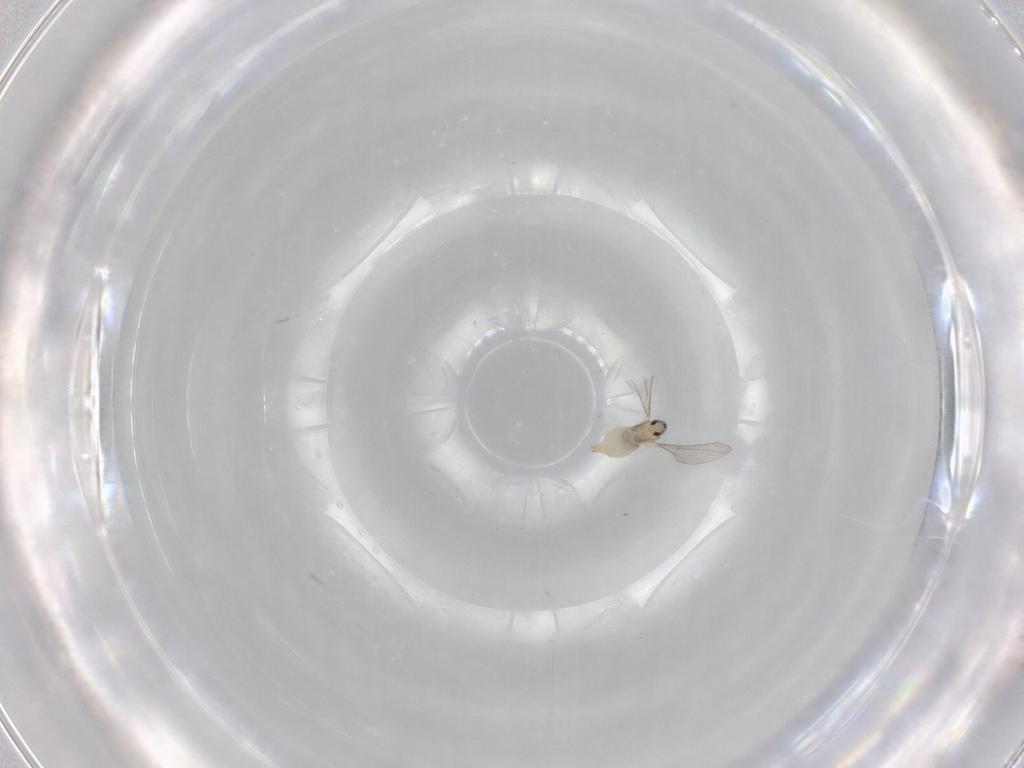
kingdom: Animalia
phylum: Arthropoda
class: Insecta
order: Diptera
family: Cecidomyiidae
